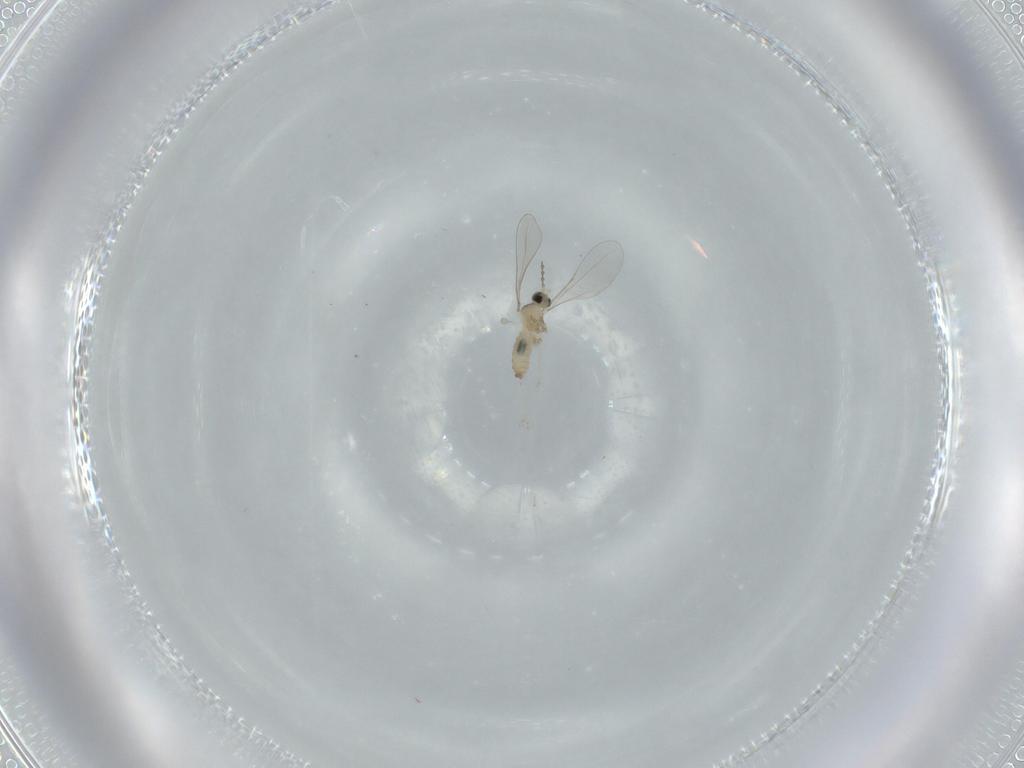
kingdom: Animalia
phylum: Arthropoda
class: Insecta
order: Diptera
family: Cecidomyiidae
